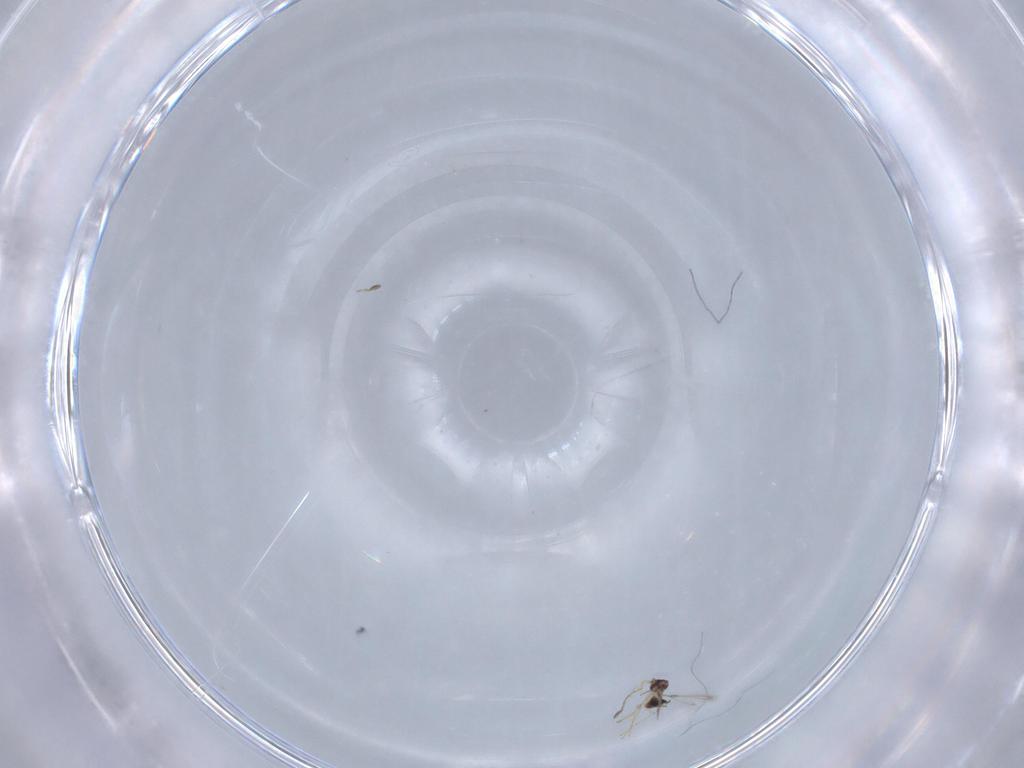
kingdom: Animalia
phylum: Arthropoda
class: Insecta
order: Hymenoptera
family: Mymaridae
